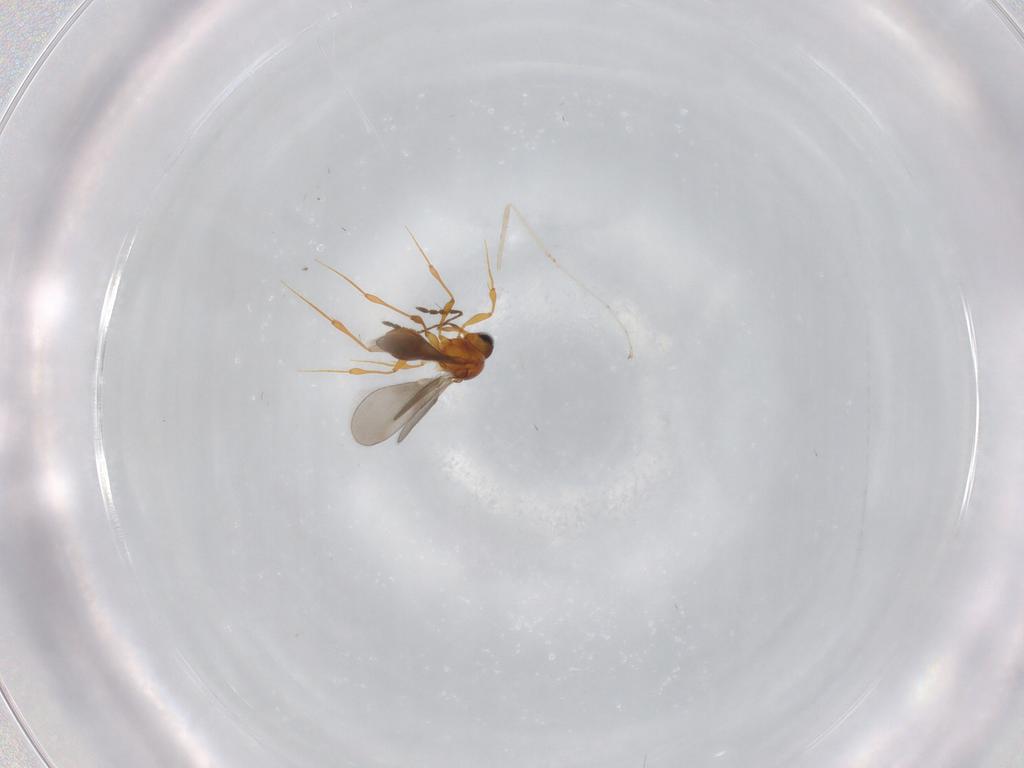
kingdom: Animalia
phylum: Arthropoda
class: Insecta
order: Hymenoptera
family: Platygastridae
